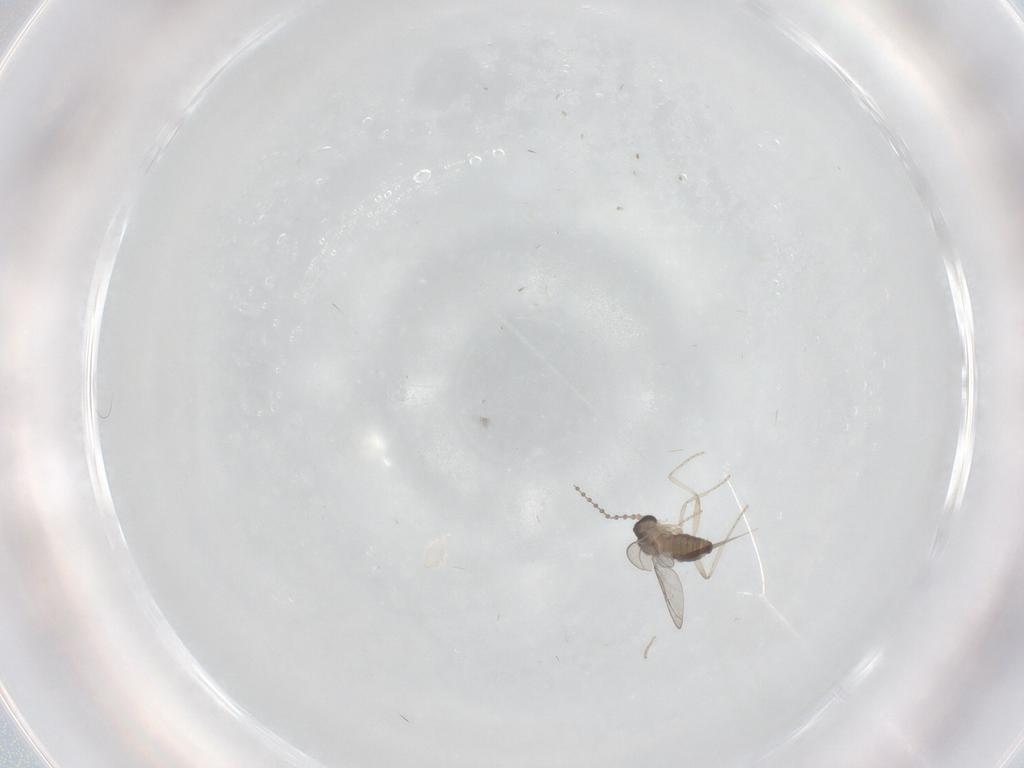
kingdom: Animalia
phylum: Arthropoda
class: Insecta
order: Diptera
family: Cecidomyiidae
